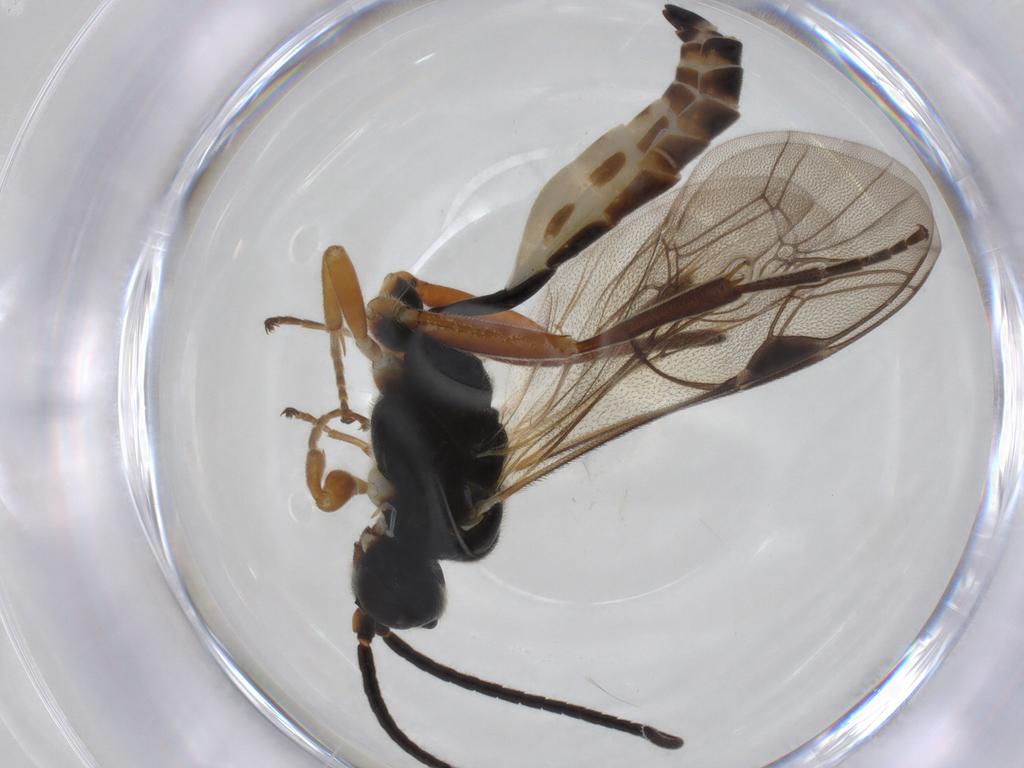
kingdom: Animalia
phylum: Arthropoda
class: Insecta
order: Hymenoptera
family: Ichneumonidae
